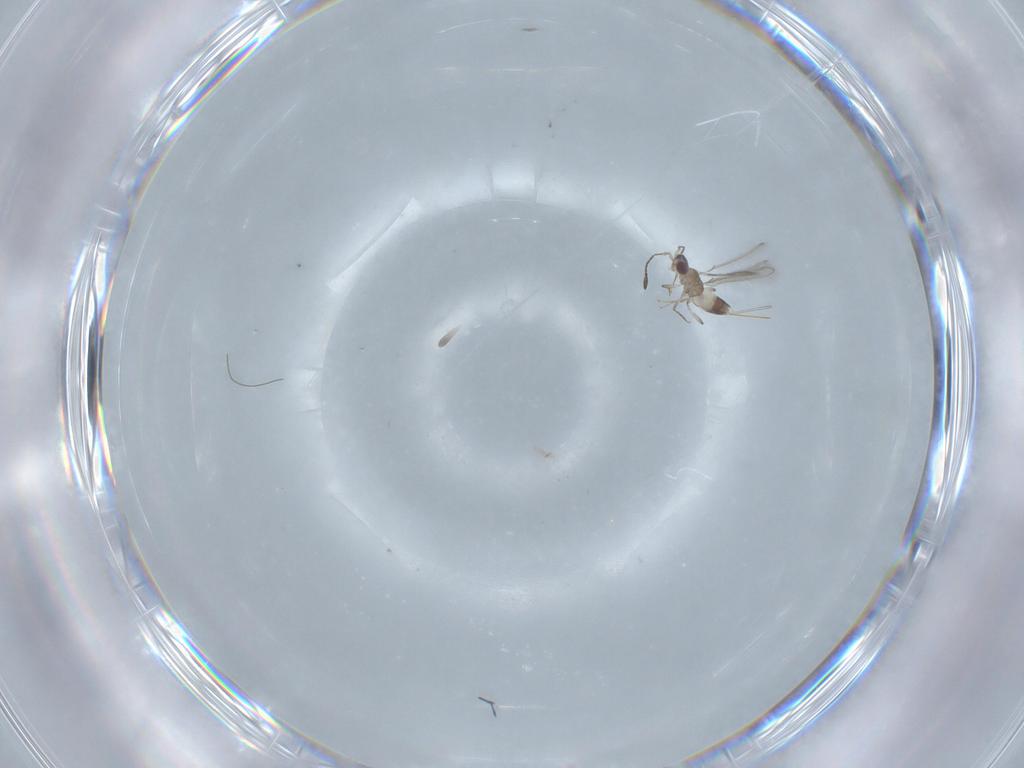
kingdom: Animalia
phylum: Arthropoda
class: Insecta
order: Hymenoptera
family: Mymaridae
